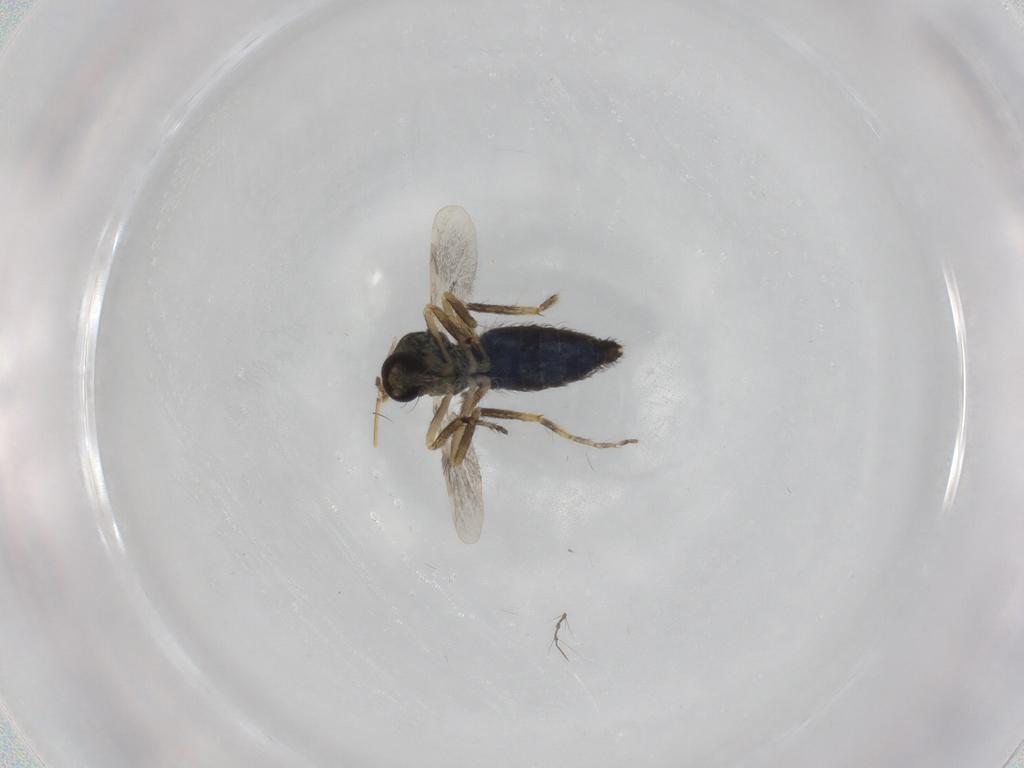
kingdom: Animalia
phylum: Arthropoda
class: Insecta
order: Diptera
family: Ceratopogonidae
